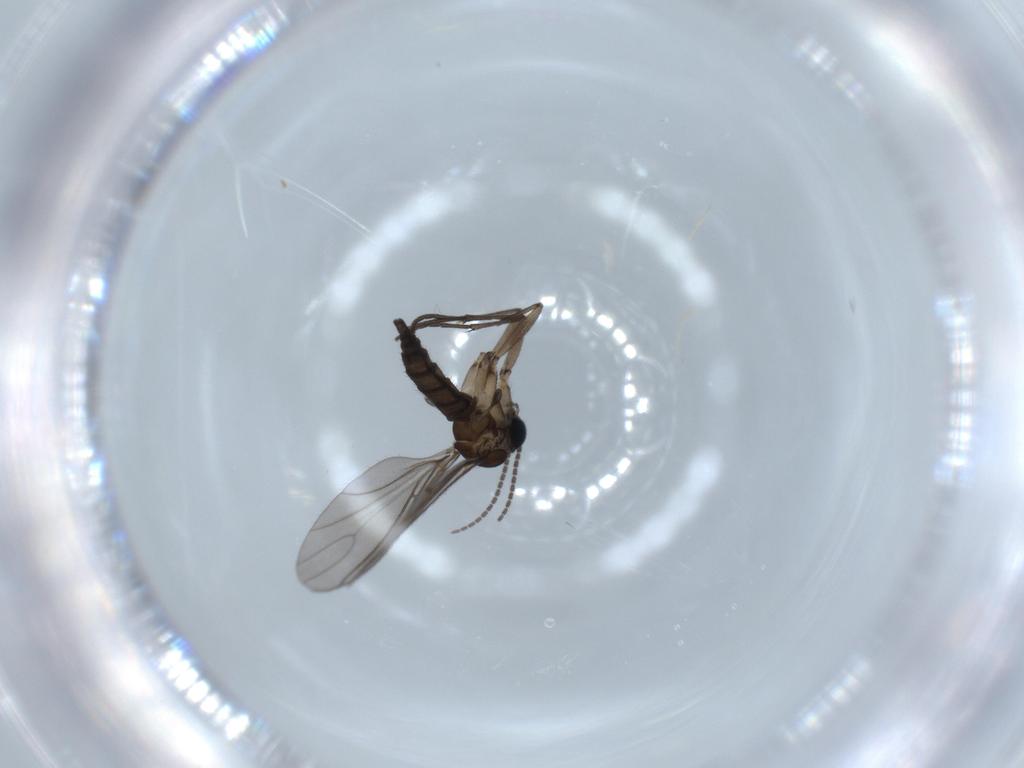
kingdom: Animalia
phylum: Arthropoda
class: Insecta
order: Diptera
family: Sciaridae
